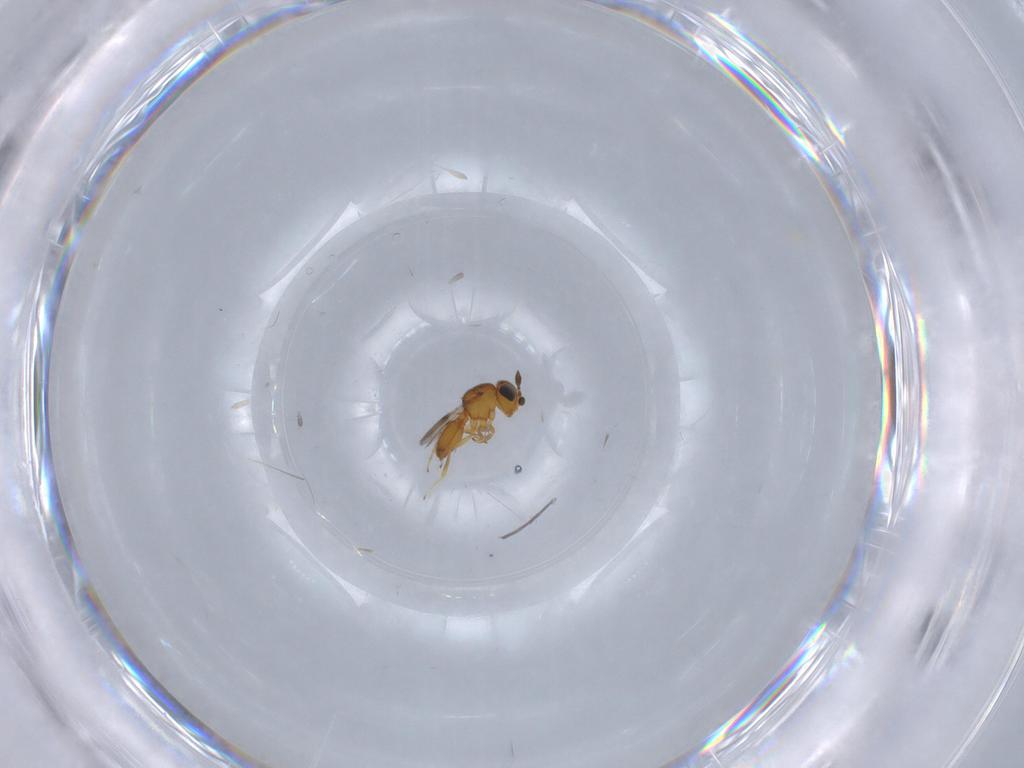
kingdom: Animalia
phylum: Arthropoda
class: Insecta
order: Hymenoptera
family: Scelionidae
